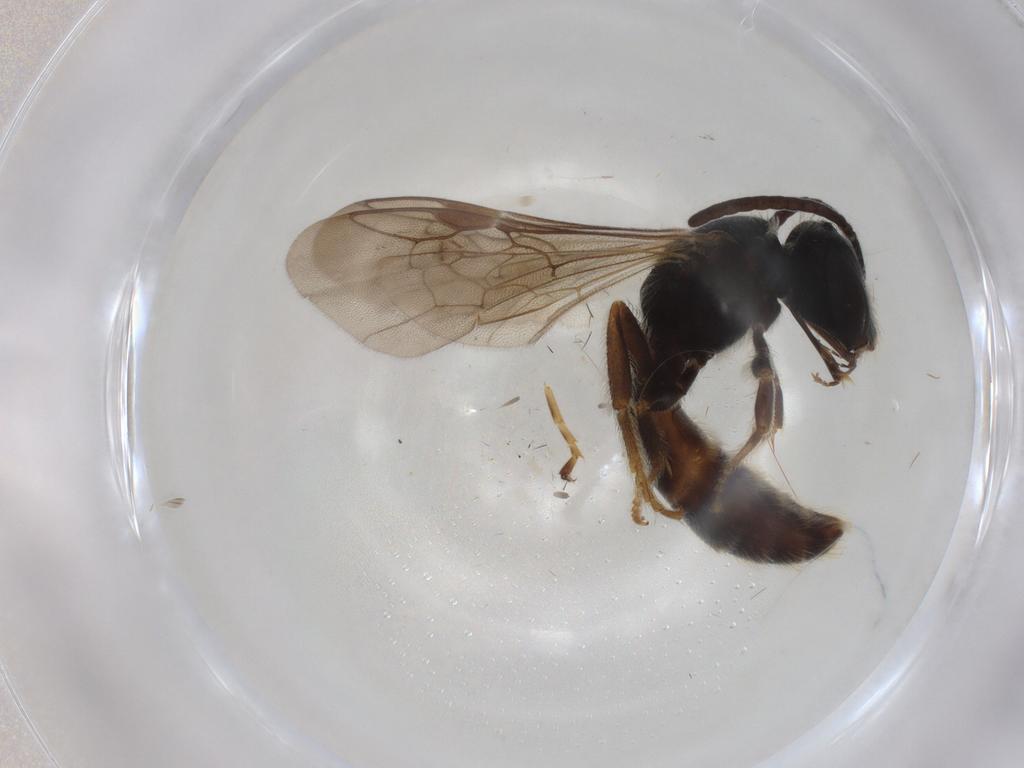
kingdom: Animalia
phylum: Arthropoda
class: Insecta
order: Hymenoptera
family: Ichneumonidae
